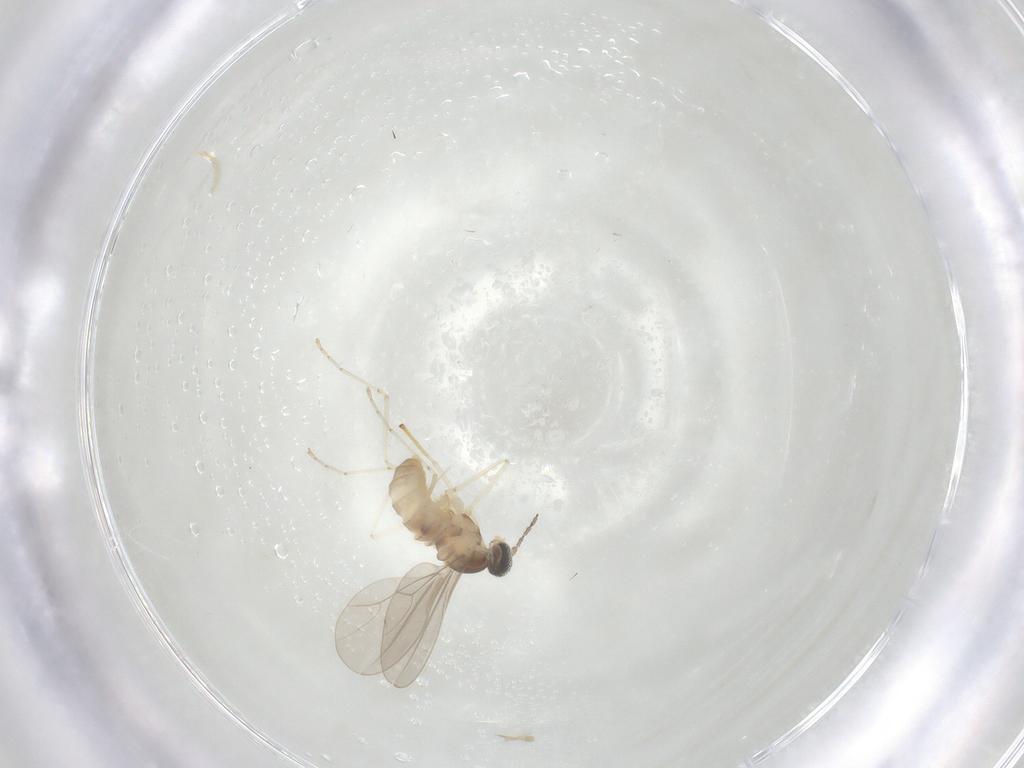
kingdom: Animalia
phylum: Arthropoda
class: Insecta
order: Diptera
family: Cecidomyiidae
